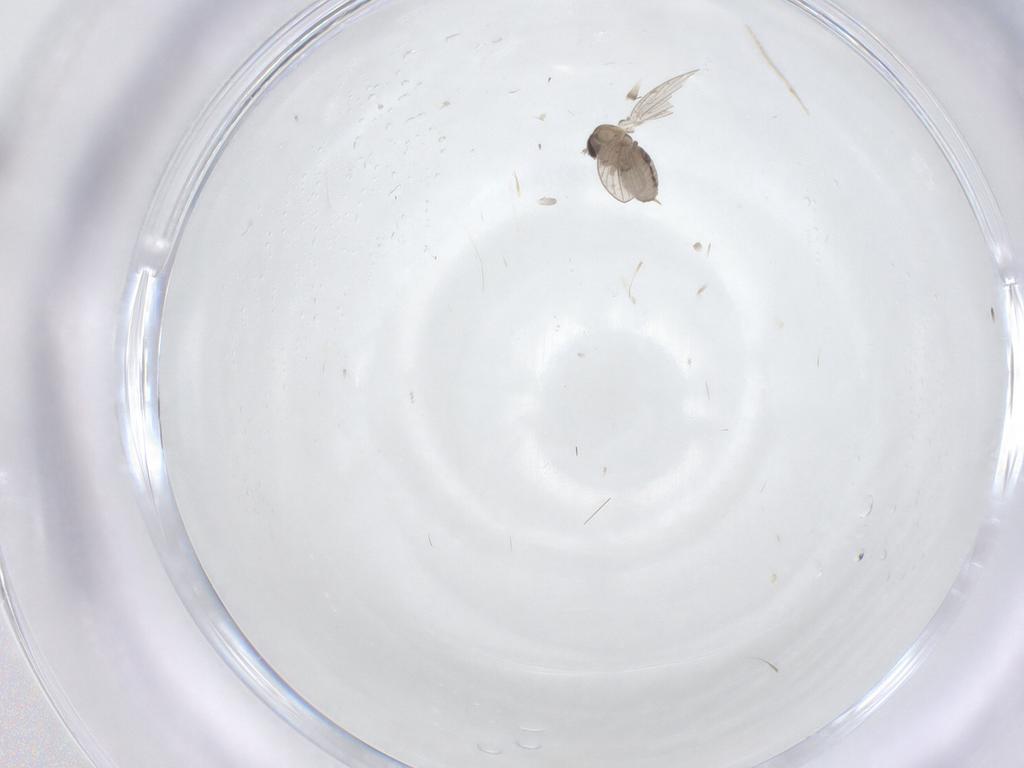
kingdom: Animalia
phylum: Arthropoda
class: Insecta
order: Diptera
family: Psychodidae
